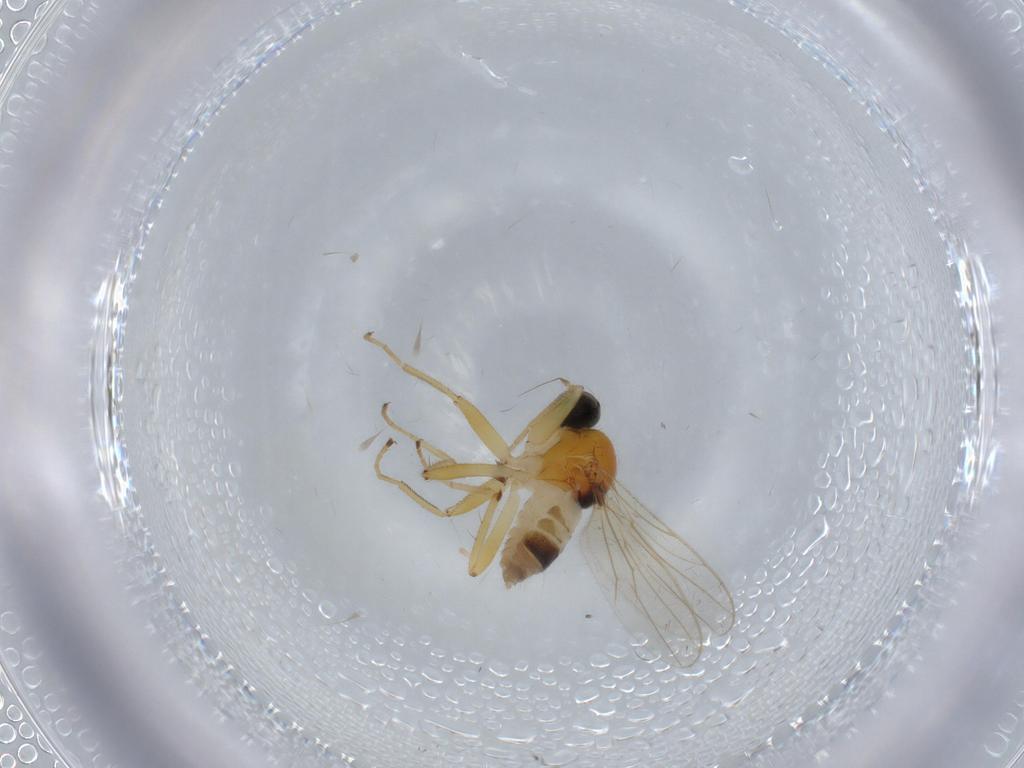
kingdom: Animalia
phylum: Arthropoda
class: Insecta
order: Diptera
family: Hybotidae
